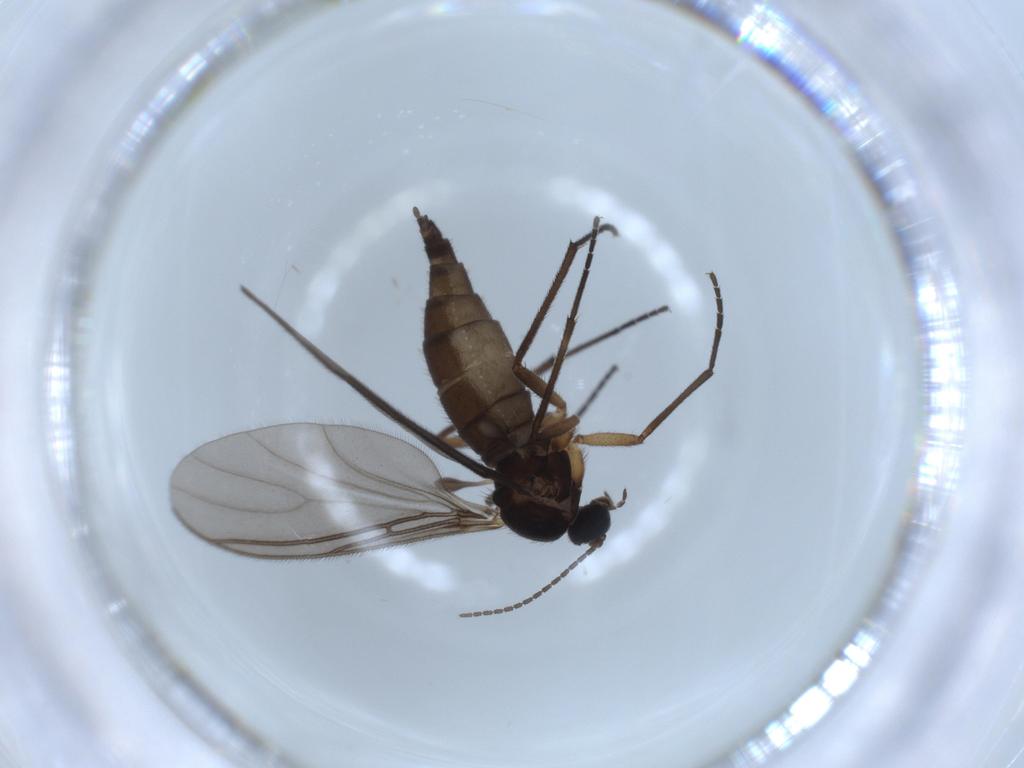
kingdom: Animalia
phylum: Arthropoda
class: Insecta
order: Diptera
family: Sciaridae
